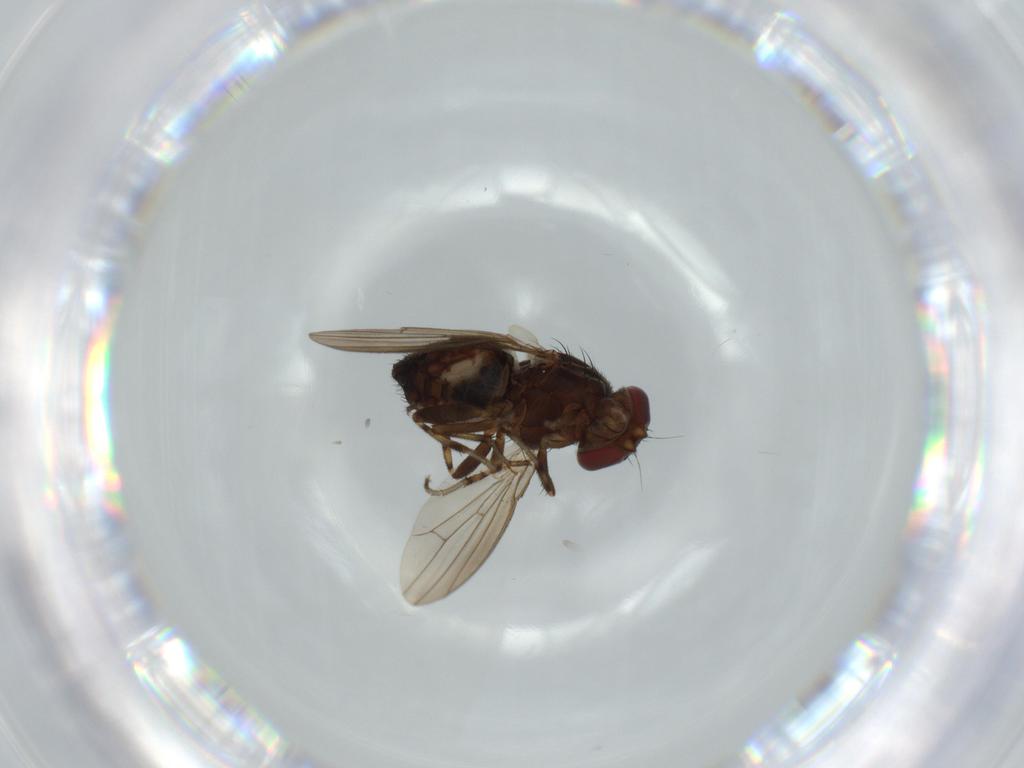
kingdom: Animalia
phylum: Arthropoda
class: Insecta
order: Diptera
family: Heleomyzidae
